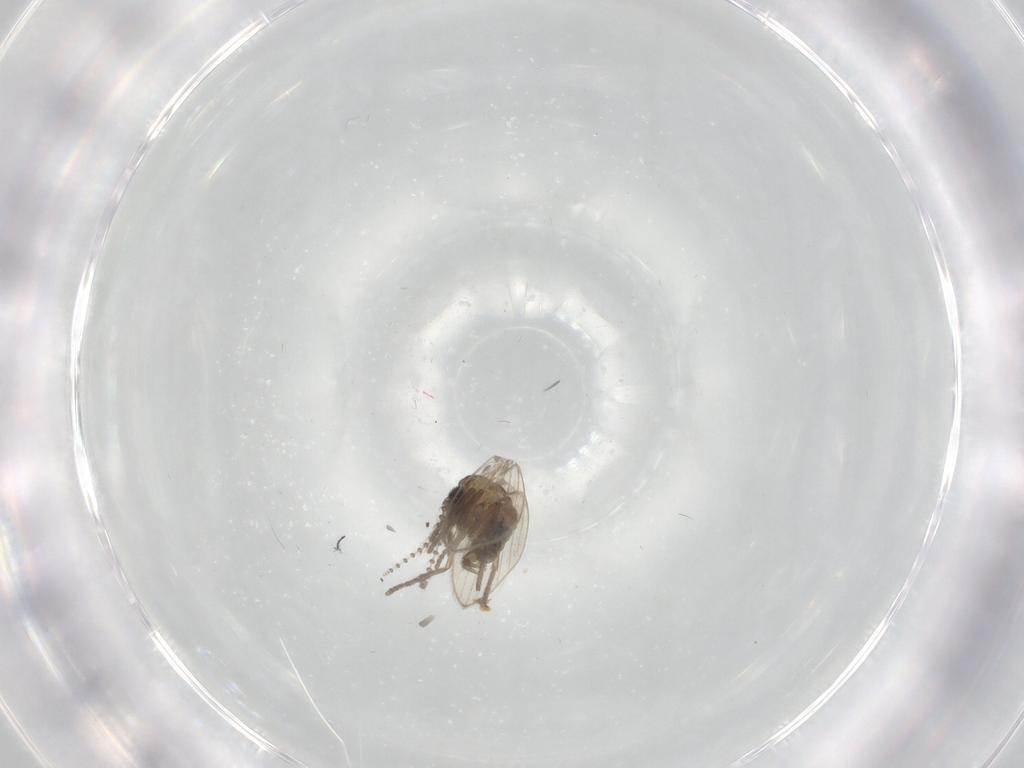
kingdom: Animalia
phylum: Arthropoda
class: Insecta
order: Diptera
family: Psychodidae
